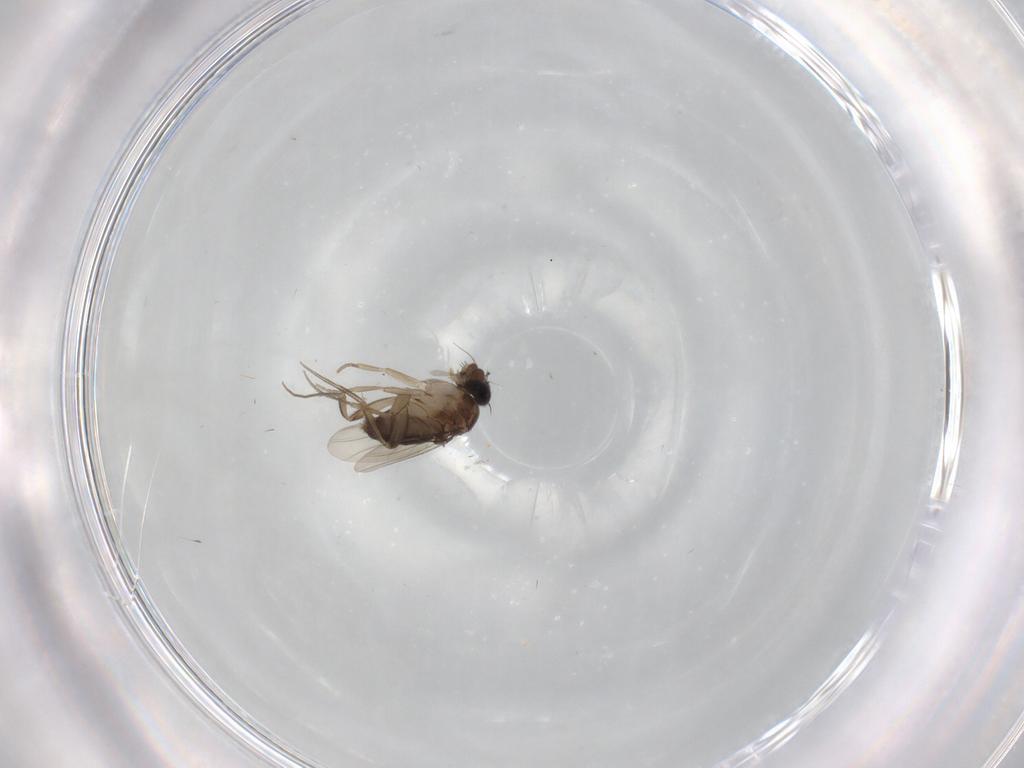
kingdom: Animalia
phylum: Arthropoda
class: Insecta
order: Diptera
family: Phoridae
